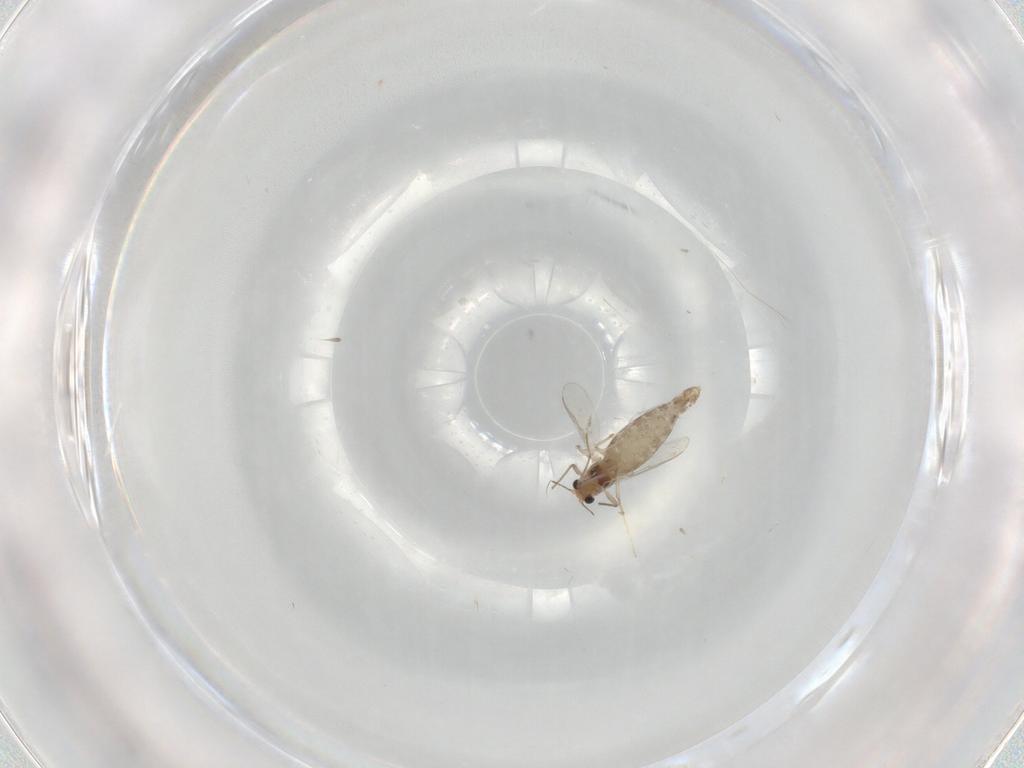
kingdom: Animalia
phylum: Arthropoda
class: Insecta
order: Diptera
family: Chironomidae
